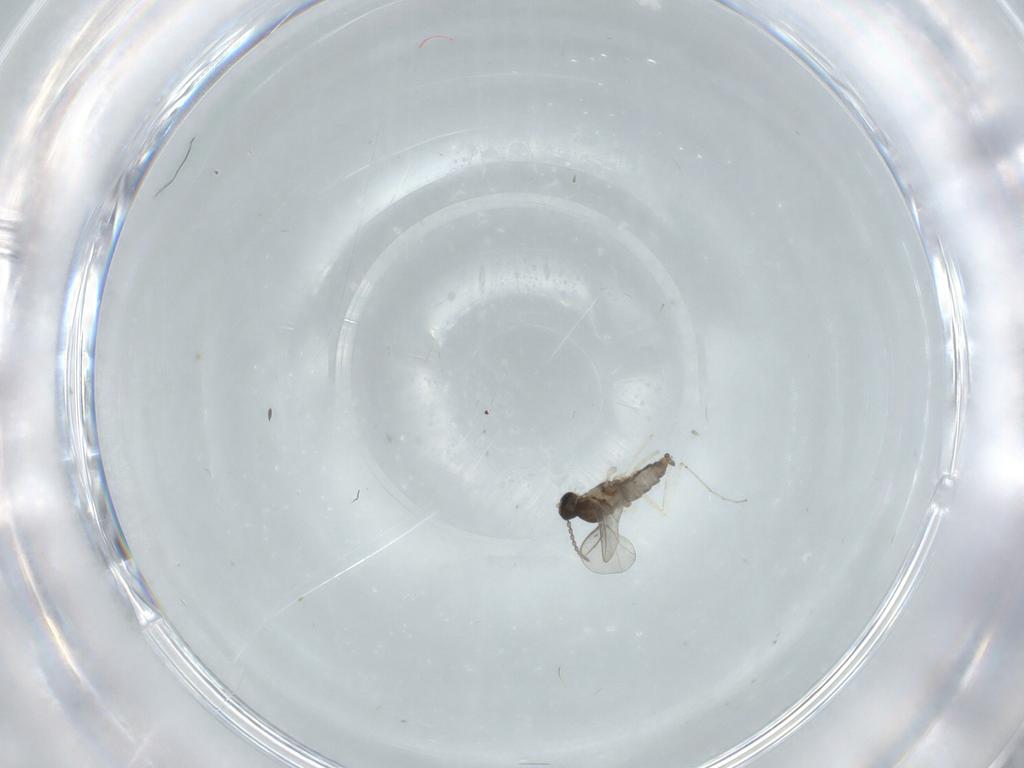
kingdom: Animalia
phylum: Arthropoda
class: Insecta
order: Diptera
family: Cecidomyiidae
